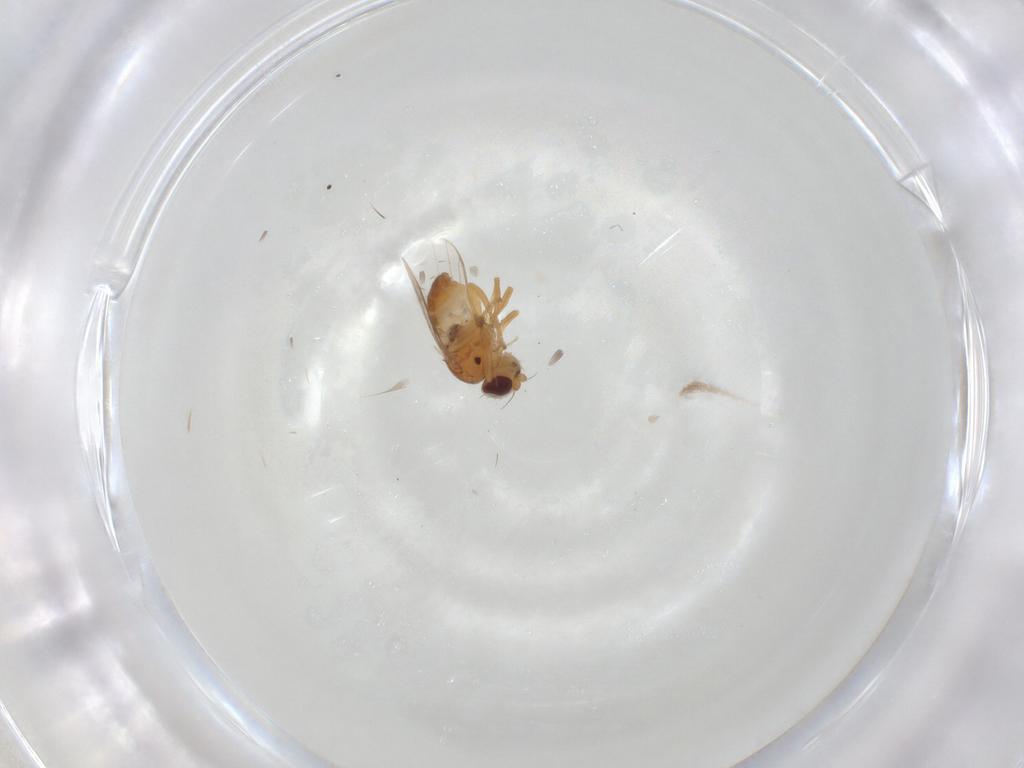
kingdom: Animalia
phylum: Arthropoda
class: Insecta
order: Diptera
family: Chloropidae
